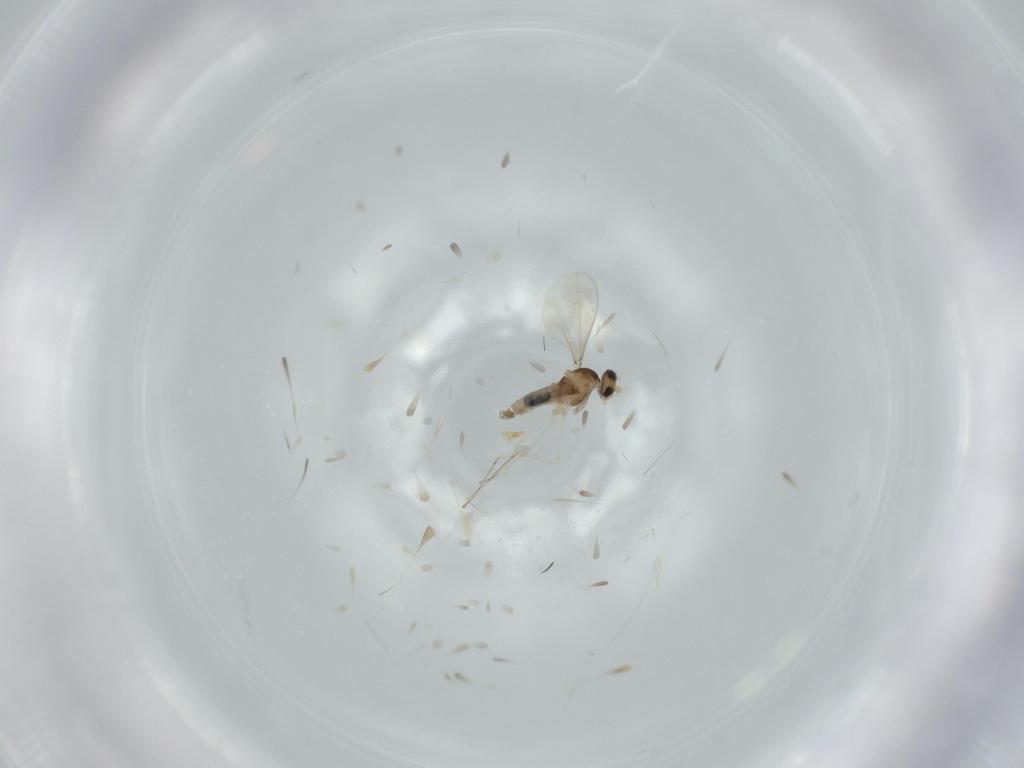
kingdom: Animalia
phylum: Arthropoda
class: Insecta
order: Diptera
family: Cecidomyiidae
